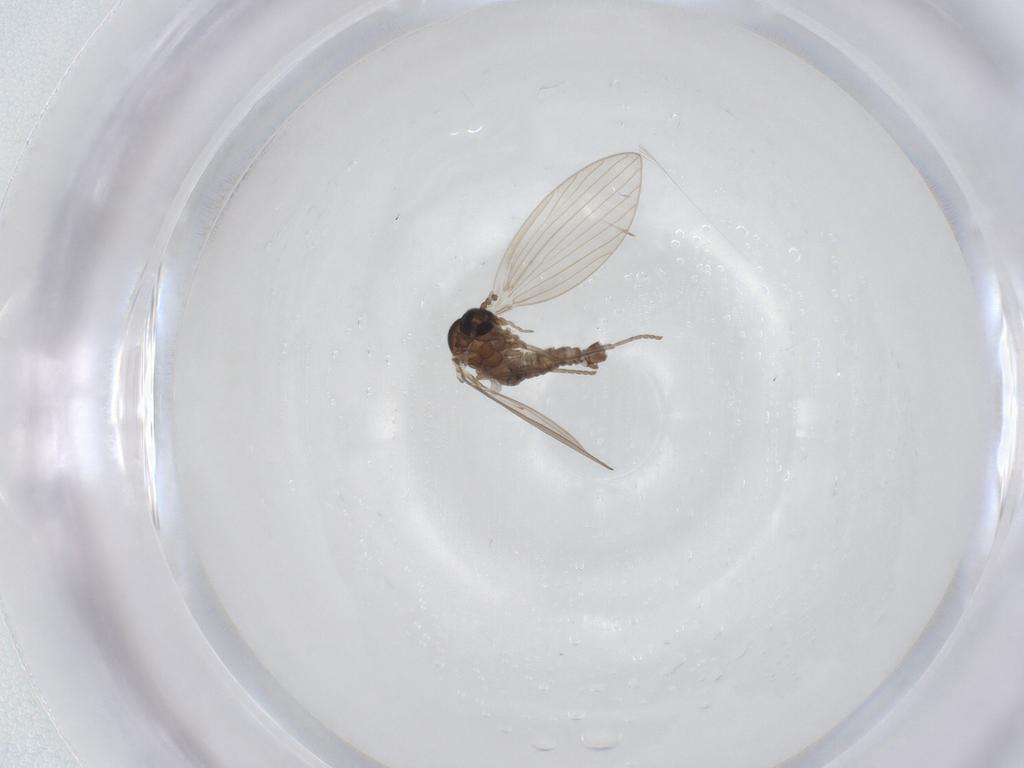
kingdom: Animalia
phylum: Arthropoda
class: Insecta
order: Diptera
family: Psychodidae
